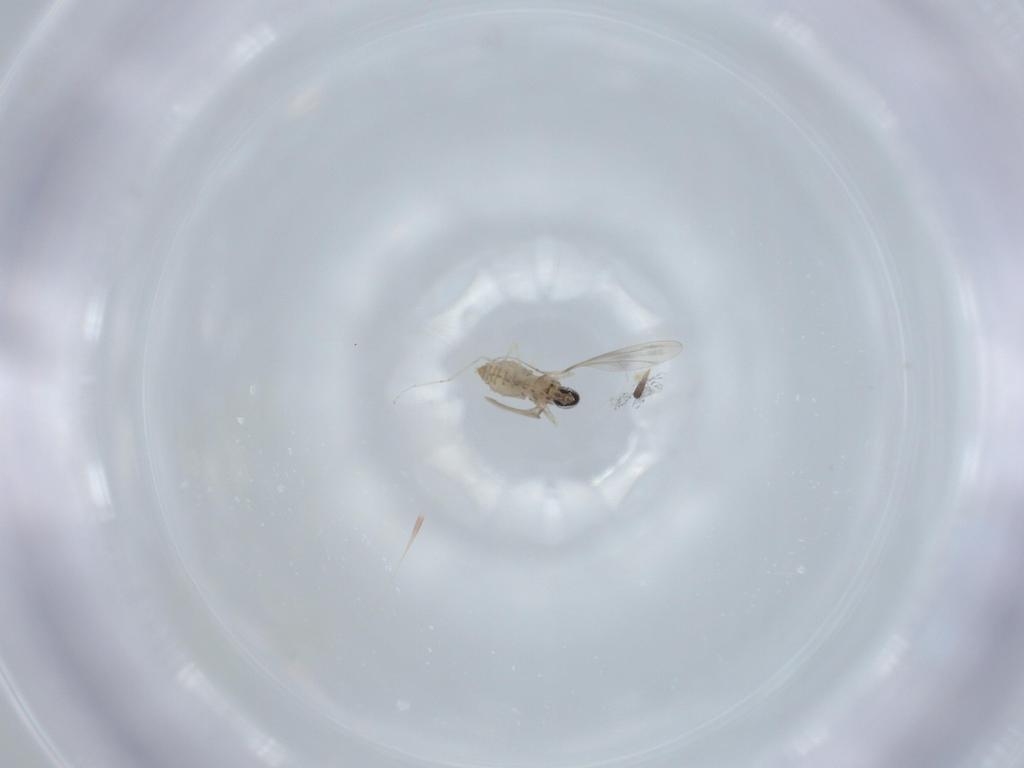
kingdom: Animalia
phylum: Arthropoda
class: Insecta
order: Diptera
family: Cecidomyiidae
